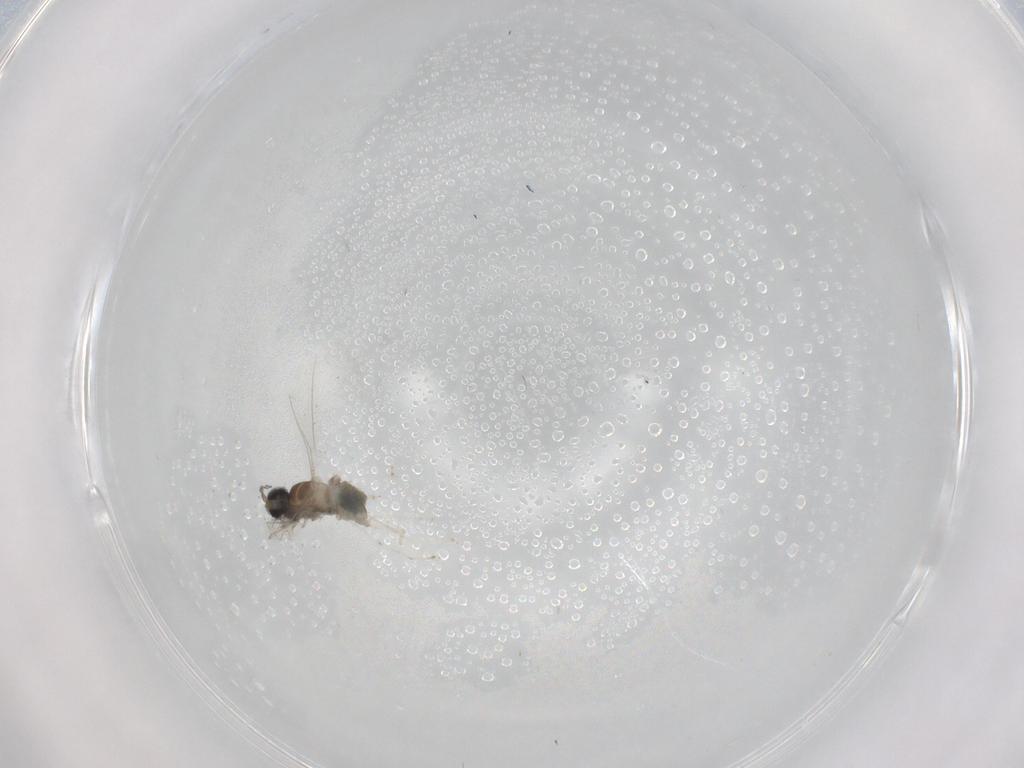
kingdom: Animalia
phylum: Arthropoda
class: Insecta
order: Diptera
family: Cecidomyiidae
